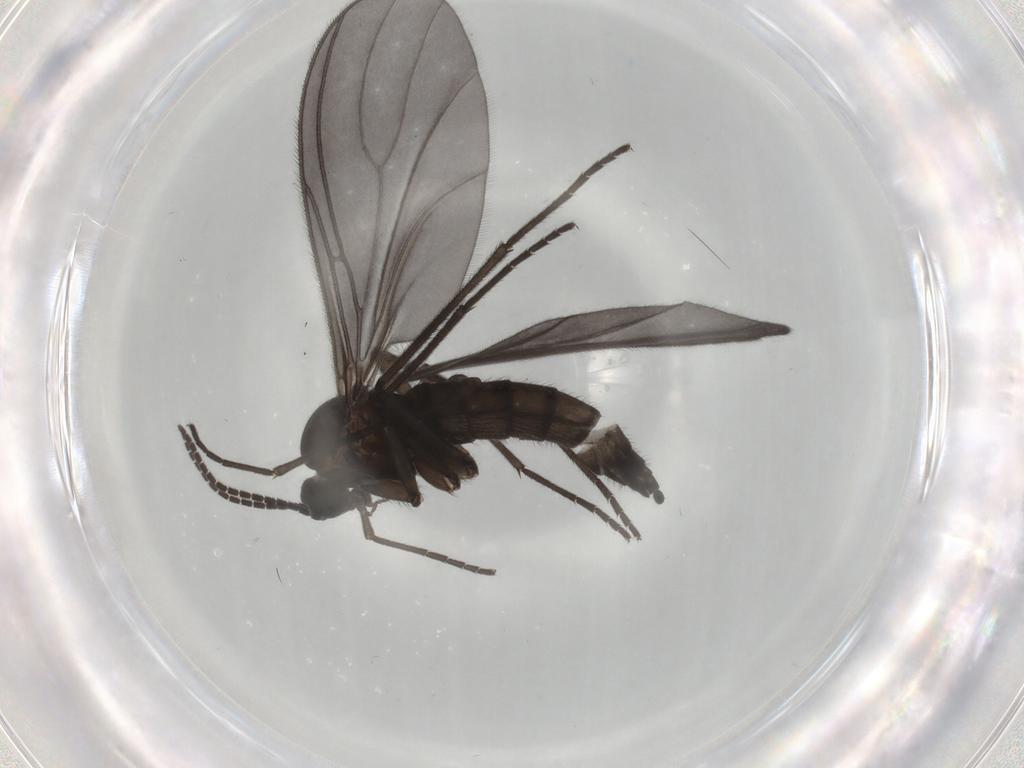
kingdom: Animalia
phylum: Arthropoda
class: Insecta
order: Diptera
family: Sciaridae
